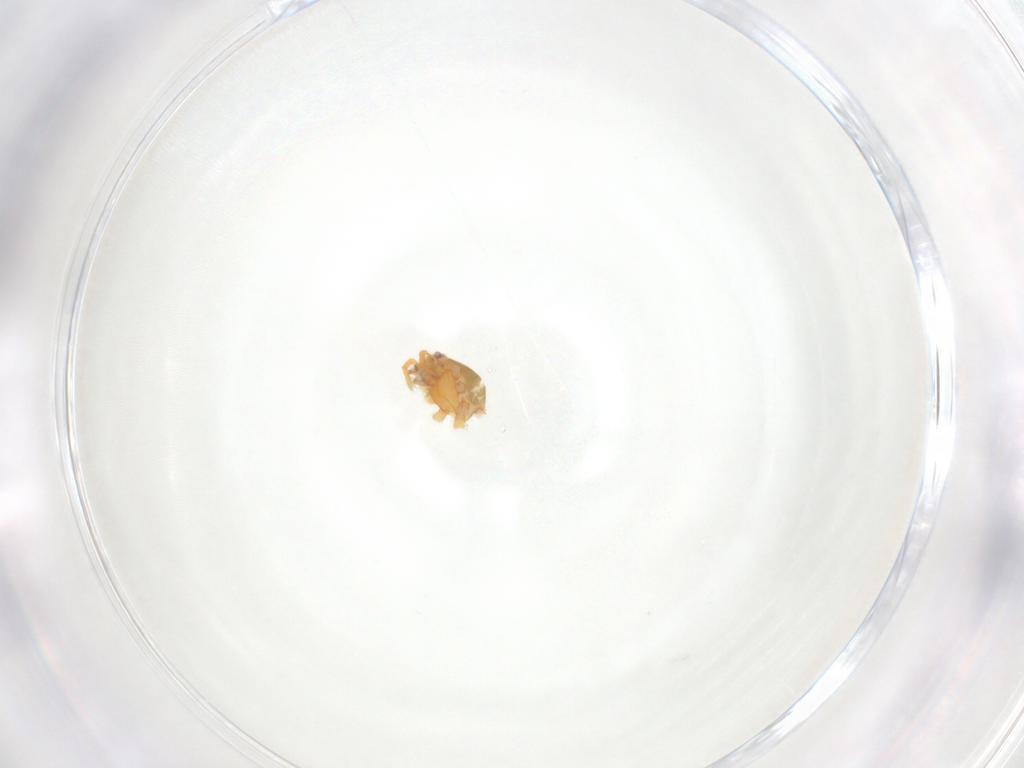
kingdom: Animalia
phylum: Arthropoda
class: Arachnida
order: Araneae
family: Oonopidae
